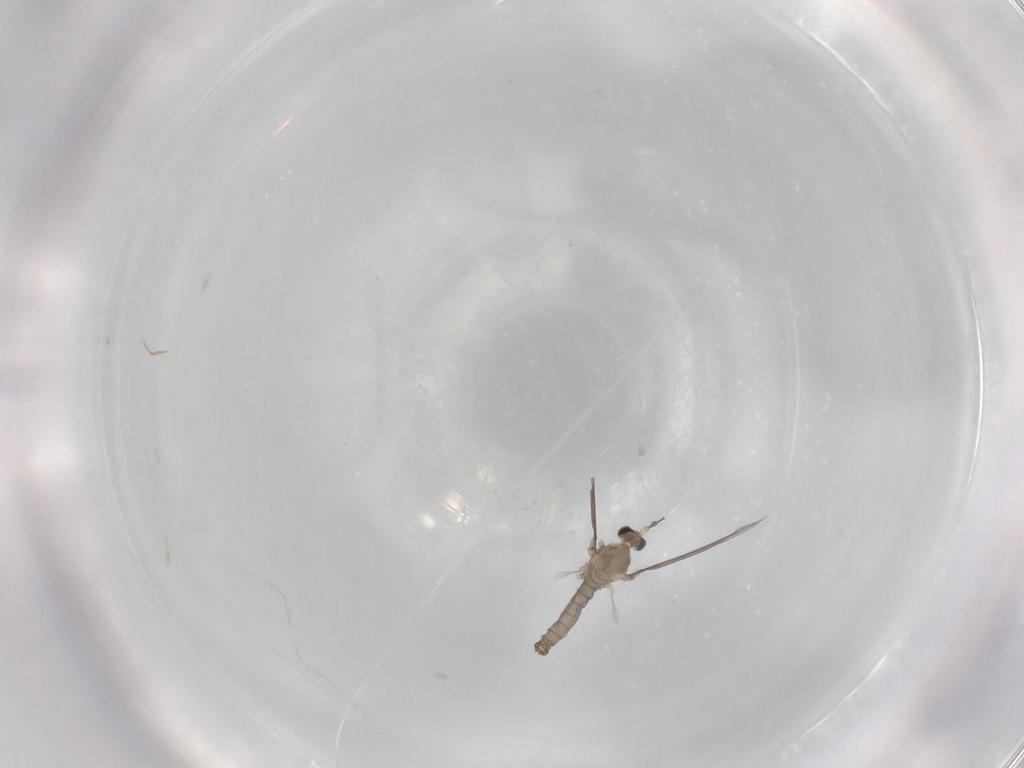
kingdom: Animalia
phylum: Arthropoda
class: Insecta
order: Diptera
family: Cecidomyiidae
